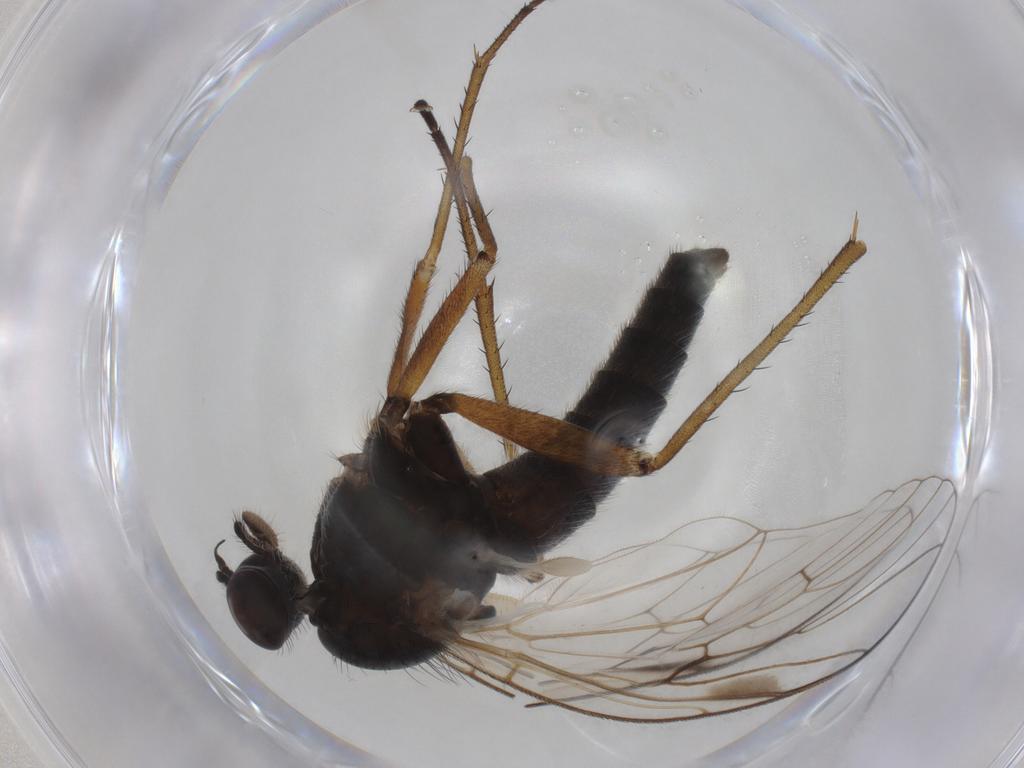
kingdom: Animalia
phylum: Arthropoda
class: Insecta
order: Diptera
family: Rhagionidae
